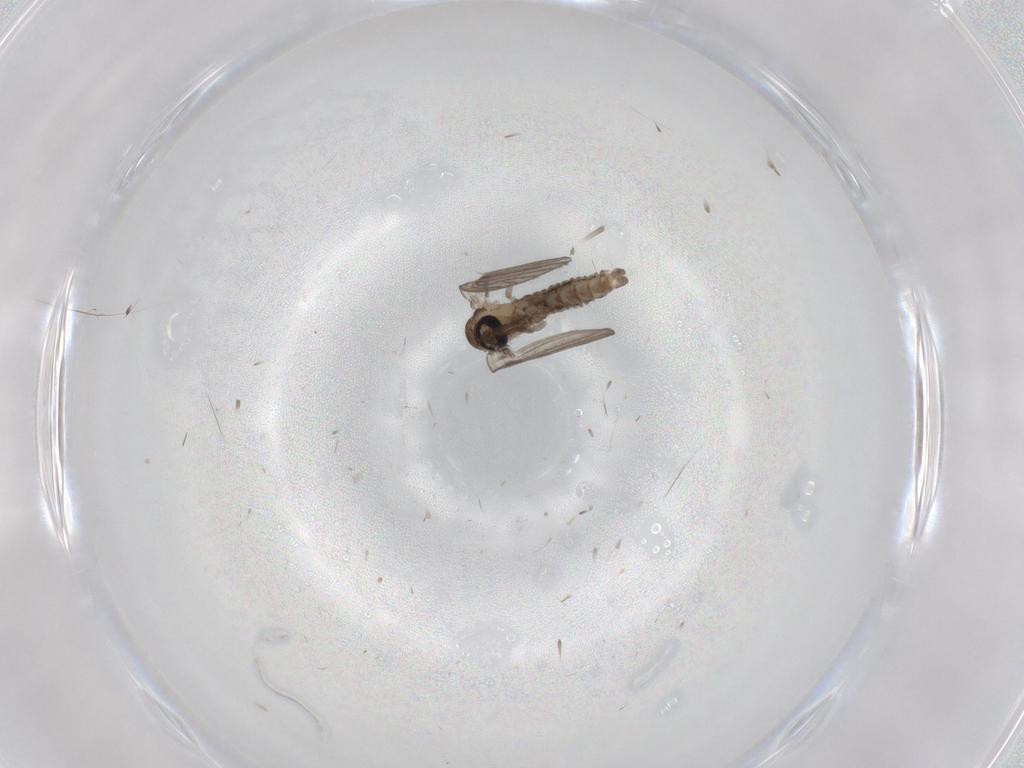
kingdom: Animalia
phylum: Arthropoda
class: Insecta
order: Diptera
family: Psychodidae
